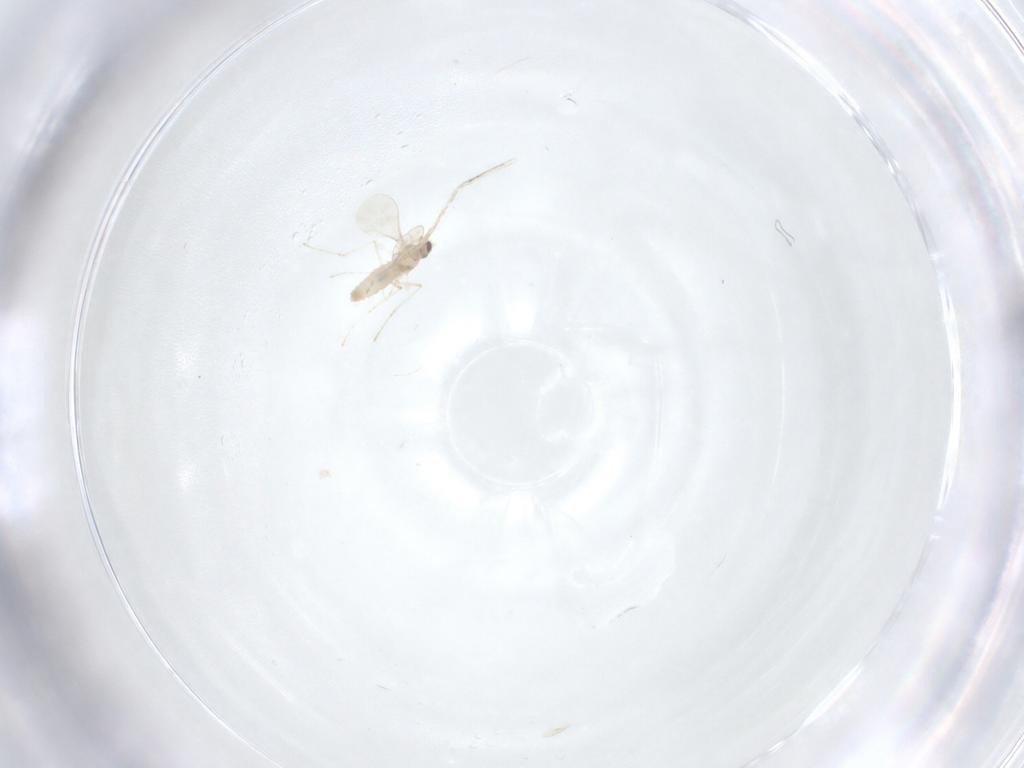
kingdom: Animalia
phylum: Arthropoda
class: Insecta
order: Diptera
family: Cecidomyiidae
